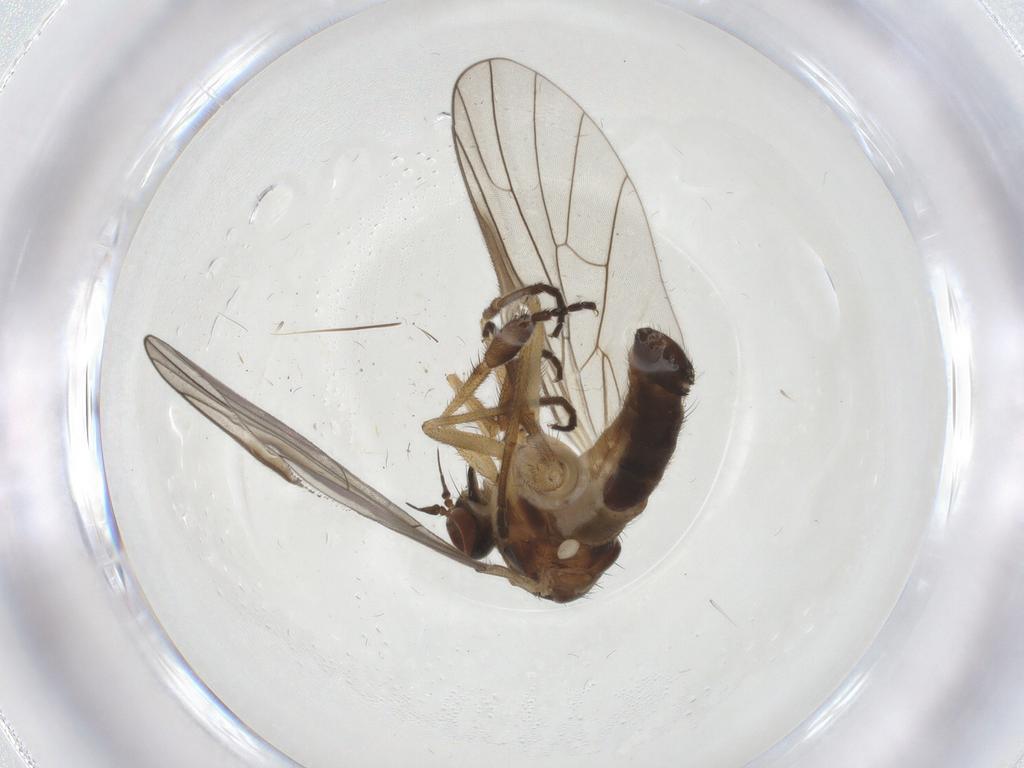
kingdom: Animalia
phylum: Arthropoda
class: Insecta
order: Diptera
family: Empididae
